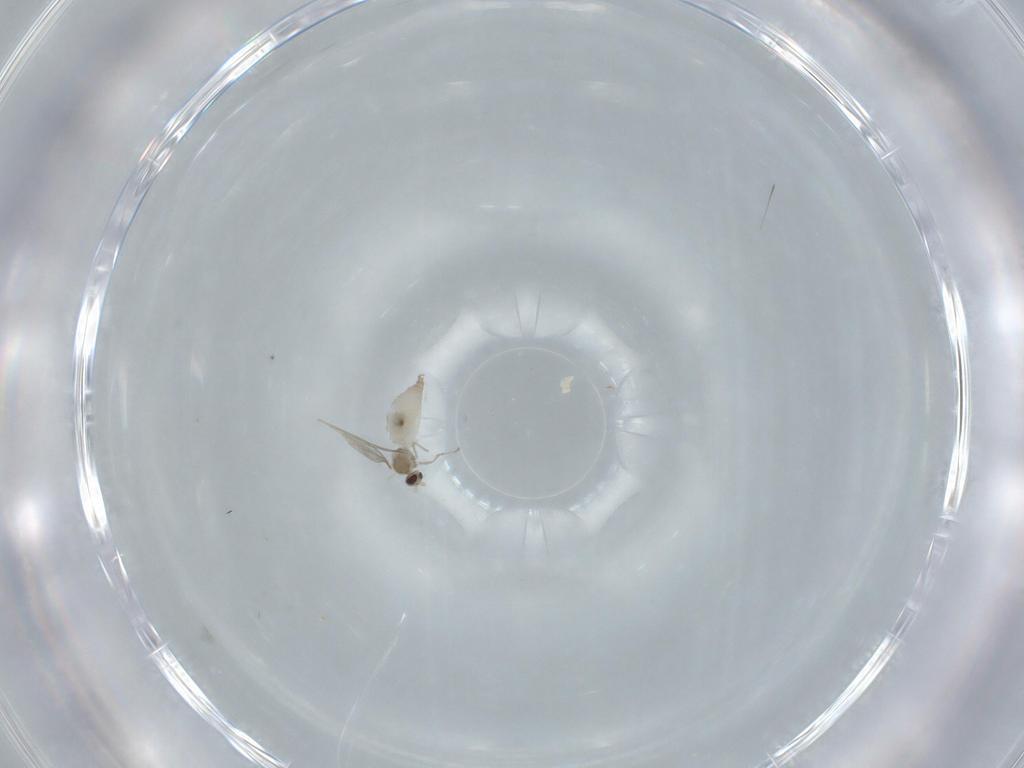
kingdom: Animalia
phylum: Arthropoda
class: Insecta
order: Diptera
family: Cecidomyiidae
